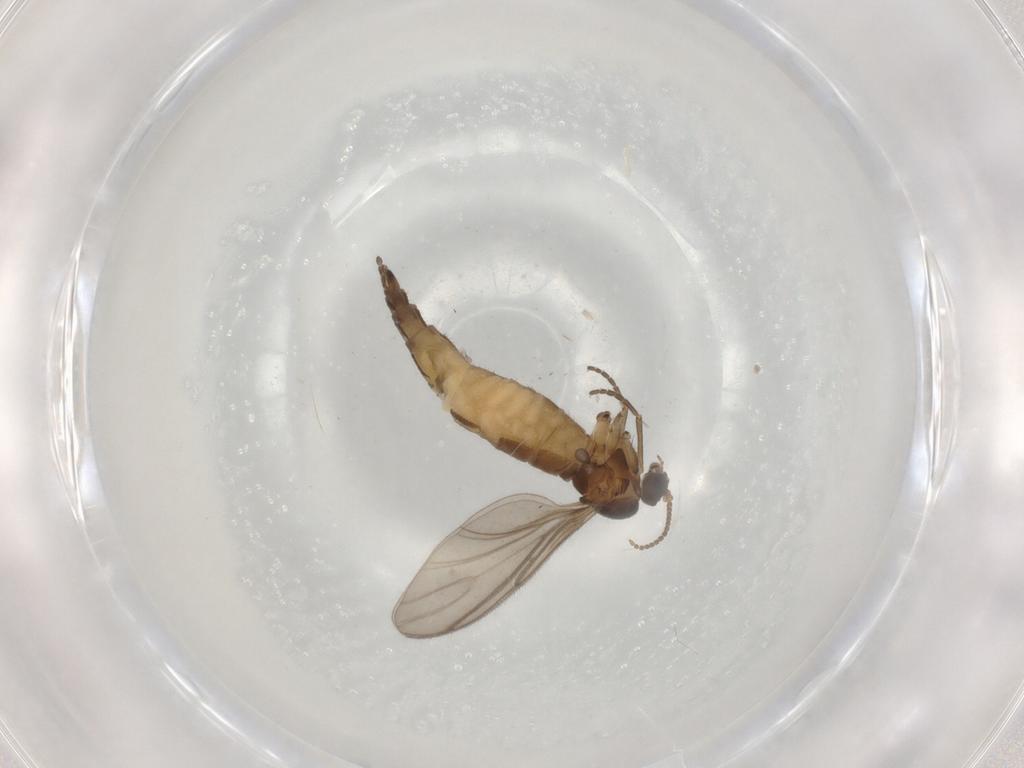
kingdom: Animalia
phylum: Arthropoda
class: Insecta
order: Diptera
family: Sciaridae
